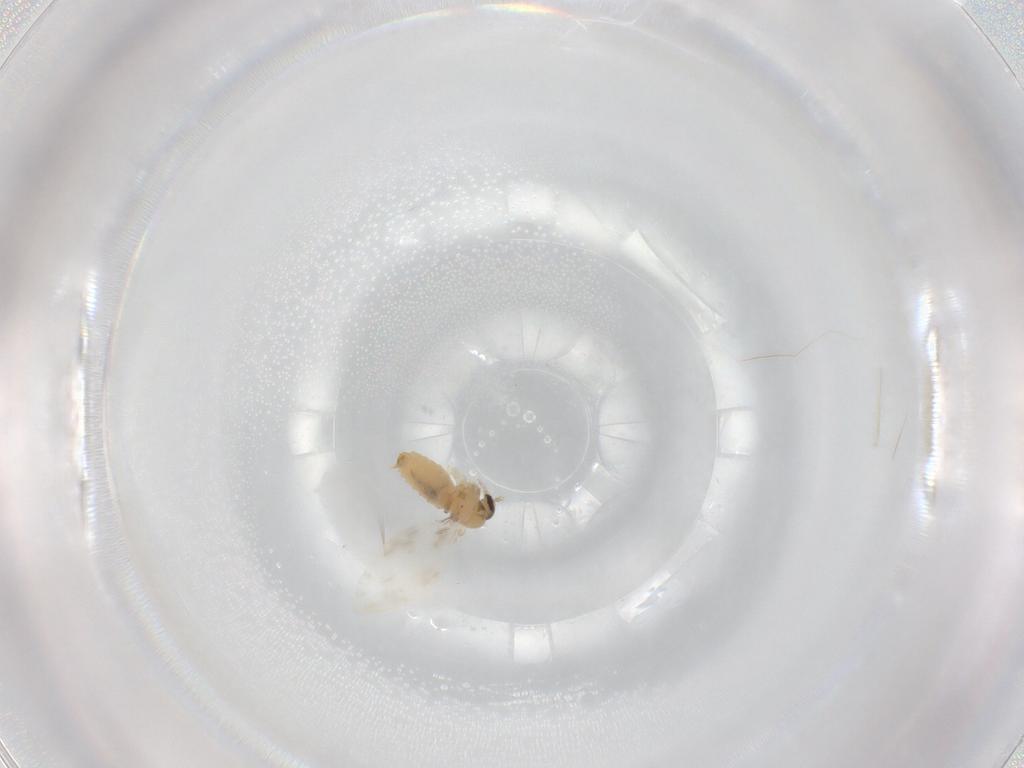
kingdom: Animalia
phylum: Arthropoda
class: Insecta
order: Diptera
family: Psychodidae
